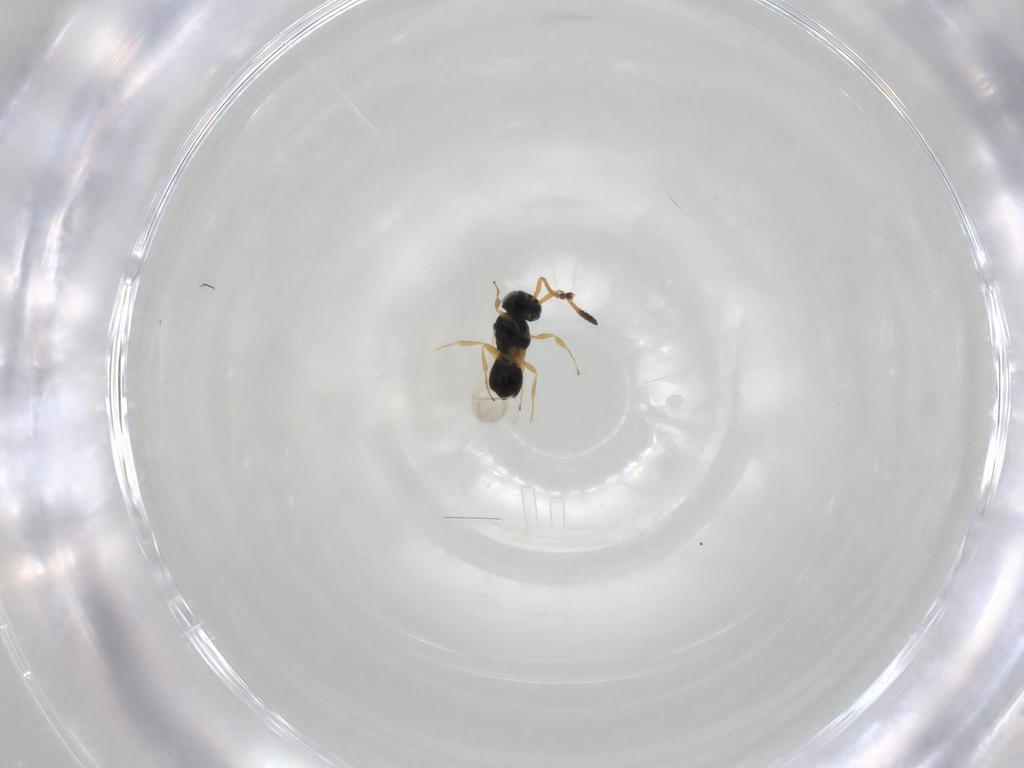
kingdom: Animalia
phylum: Arthropoda
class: Insecta
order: Hymenoptera
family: Scelionidae
